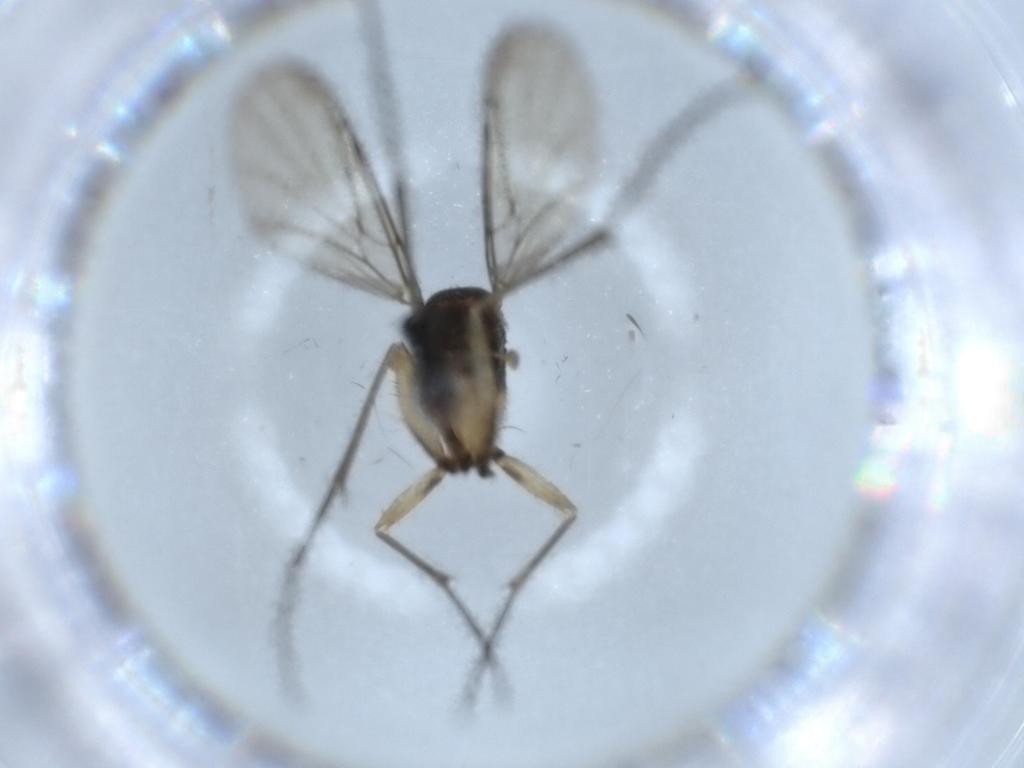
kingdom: Animalia
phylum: Arthropoda
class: Insecta
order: Diptera
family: Keroplatidae
